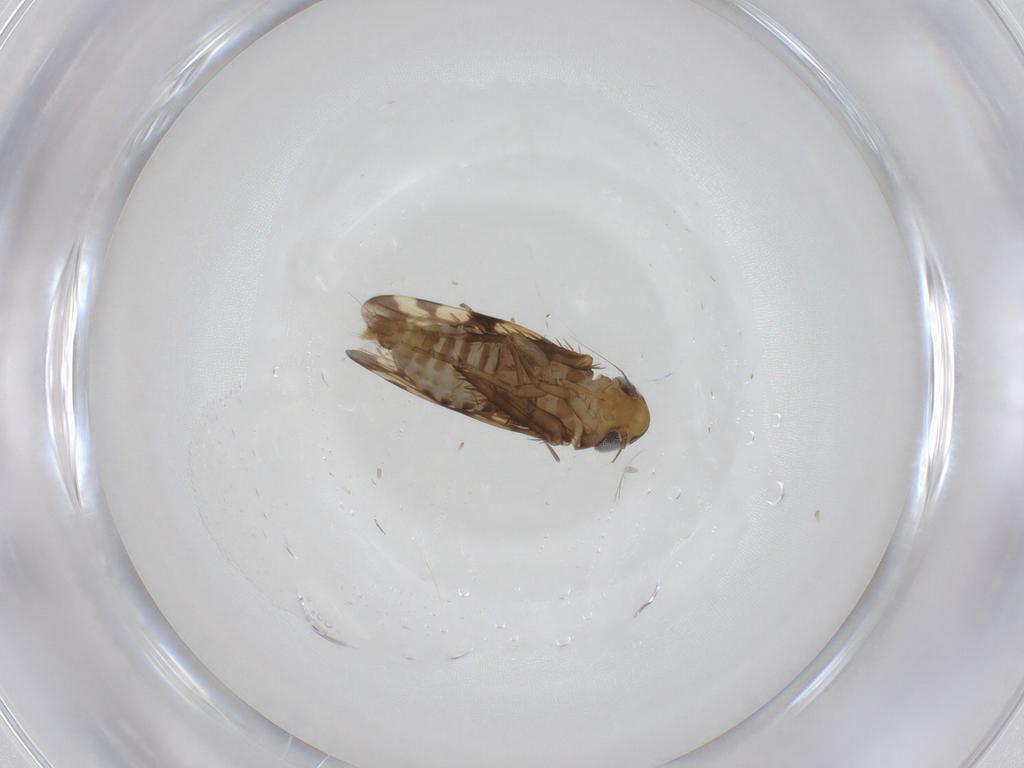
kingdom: Animalia
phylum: Arthropoda
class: Insecta
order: Hemiptera
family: Cicadellidae
